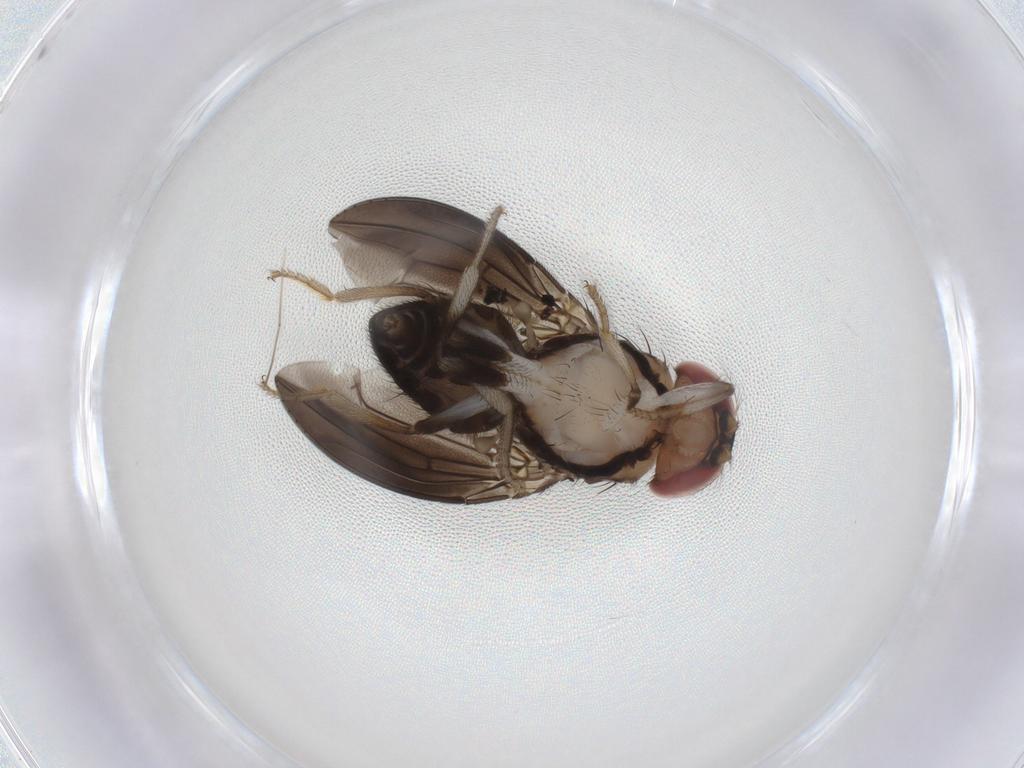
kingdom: Animalia
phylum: Arthropoda
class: Insecta
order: Diptera
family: Drosophilidae
